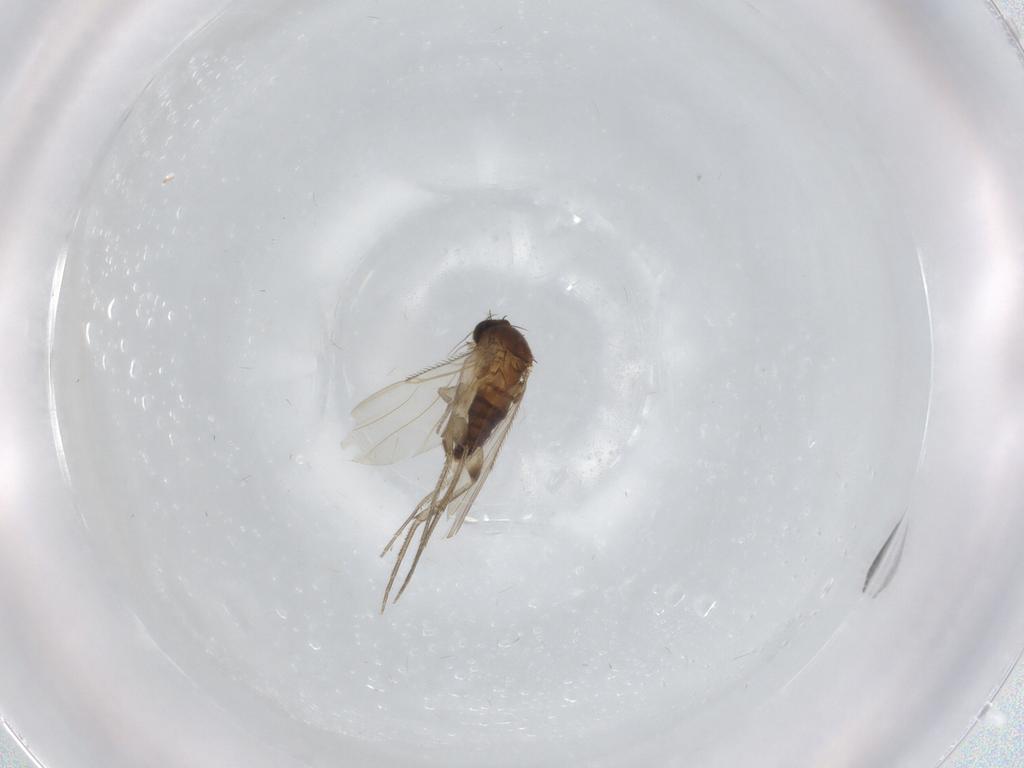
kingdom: Animalia
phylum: Arthropoda
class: Insecta
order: Diptera
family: Phoridae
